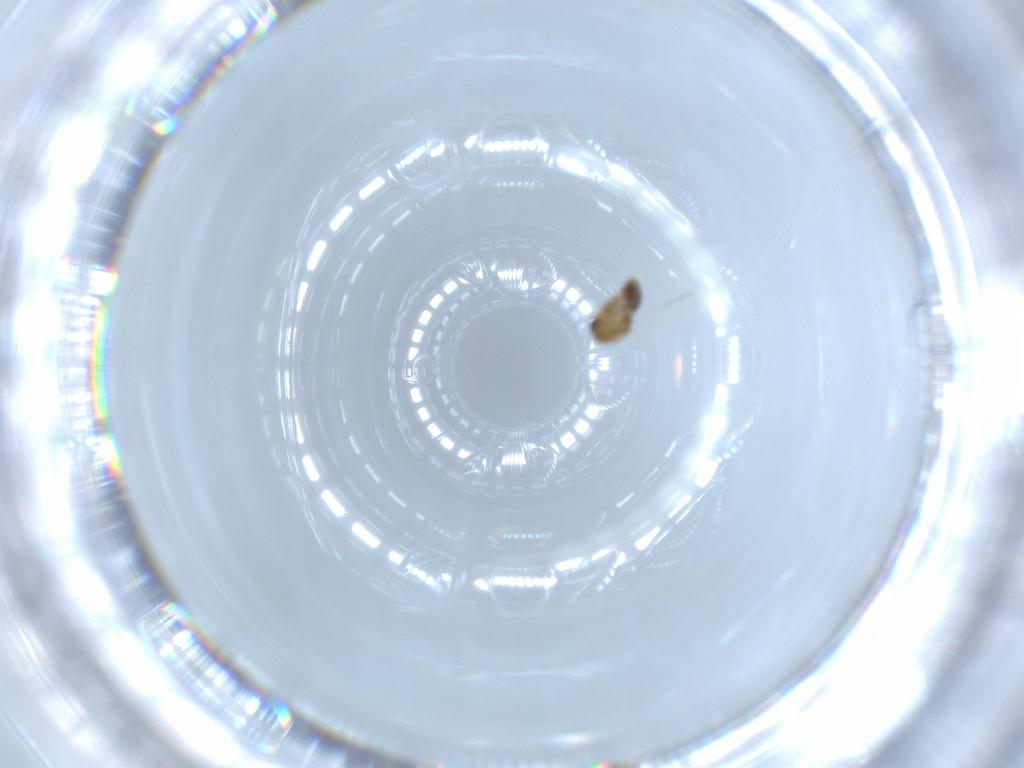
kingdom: Animalia
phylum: Arthropoda
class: Insecta
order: Diptera
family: Chironomidae
